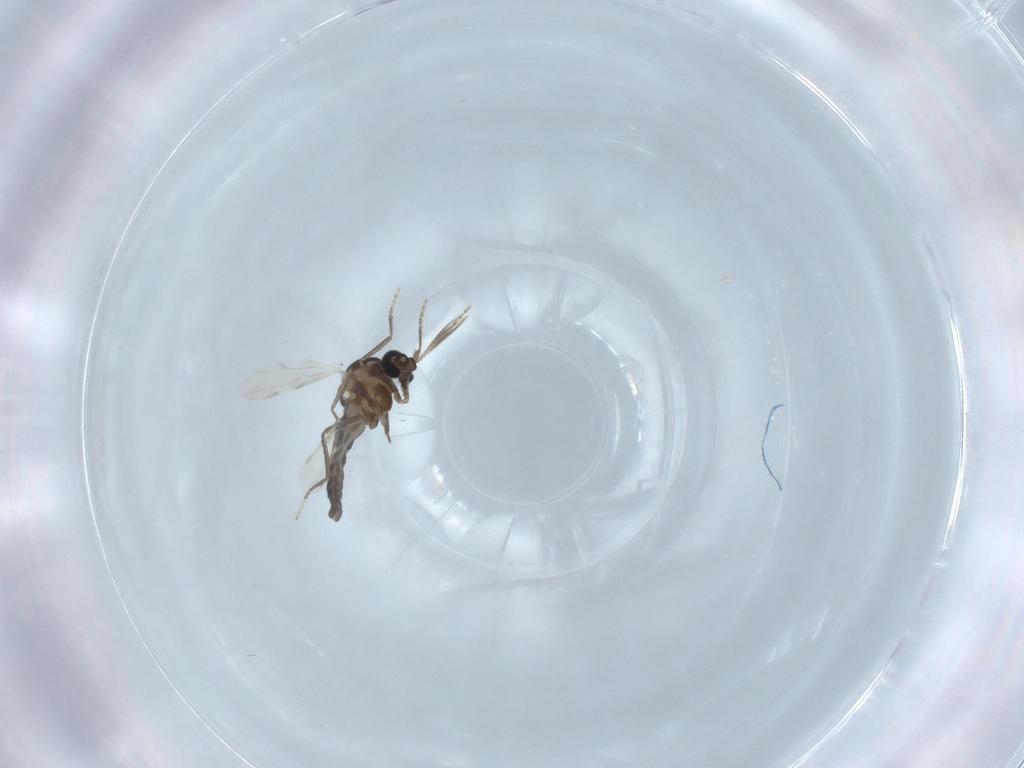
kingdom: Animalia
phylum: Arthropoda
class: Insecta
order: Diptera
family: Ceratopogonidae
